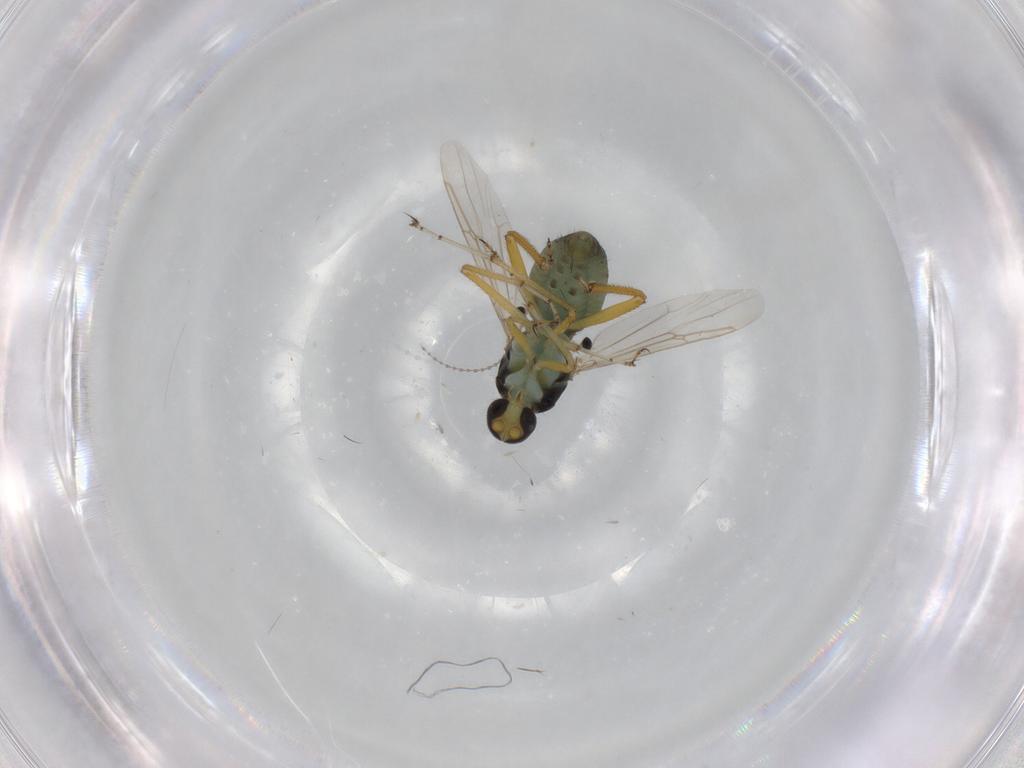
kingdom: Animalia
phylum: Arthropoda
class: Insecta
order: Diptera
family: Ceratopogonidae
